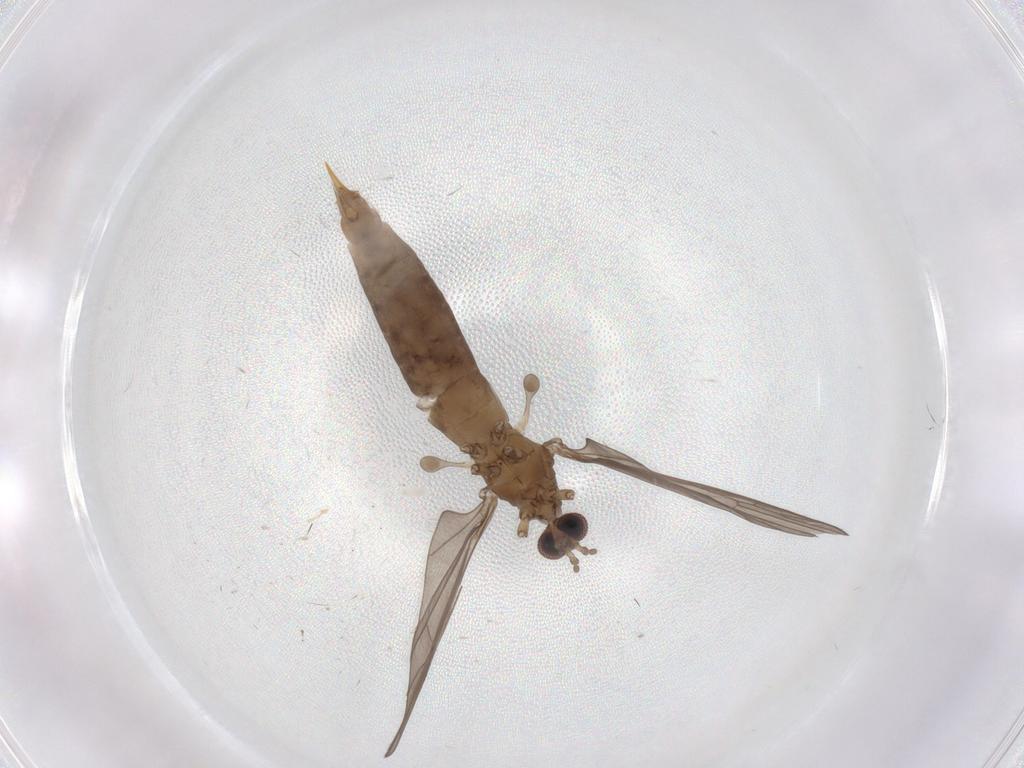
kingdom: Animalia
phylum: Arthropoda
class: Insecta
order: Diptera
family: Limoniidae
